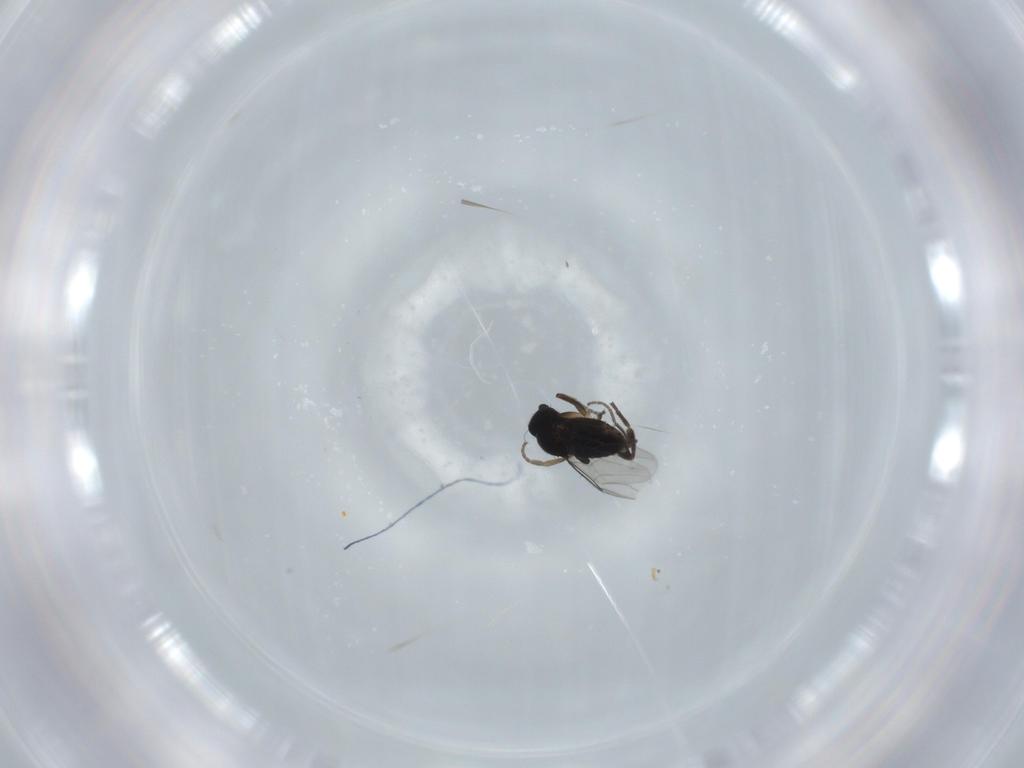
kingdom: Animalia
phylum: Arthropoda
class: Insecta
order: Diptera
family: Phoridae
